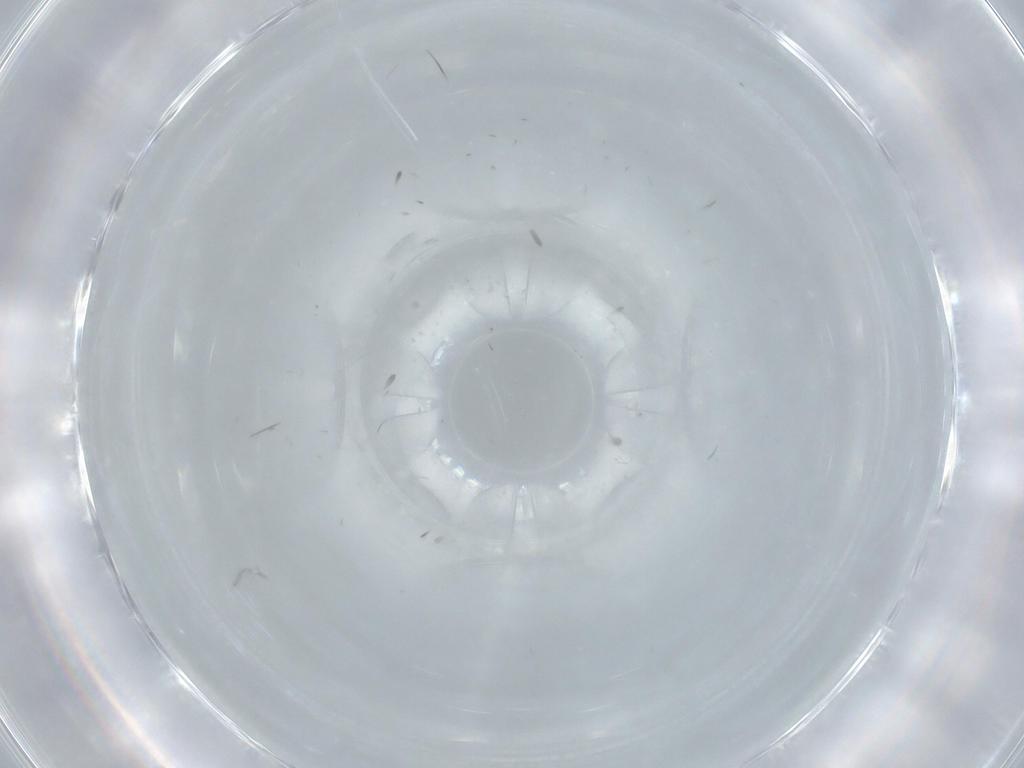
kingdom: Animalia
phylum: Arthropoda
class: Insecta
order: Blattodea
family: Ectobiidae
